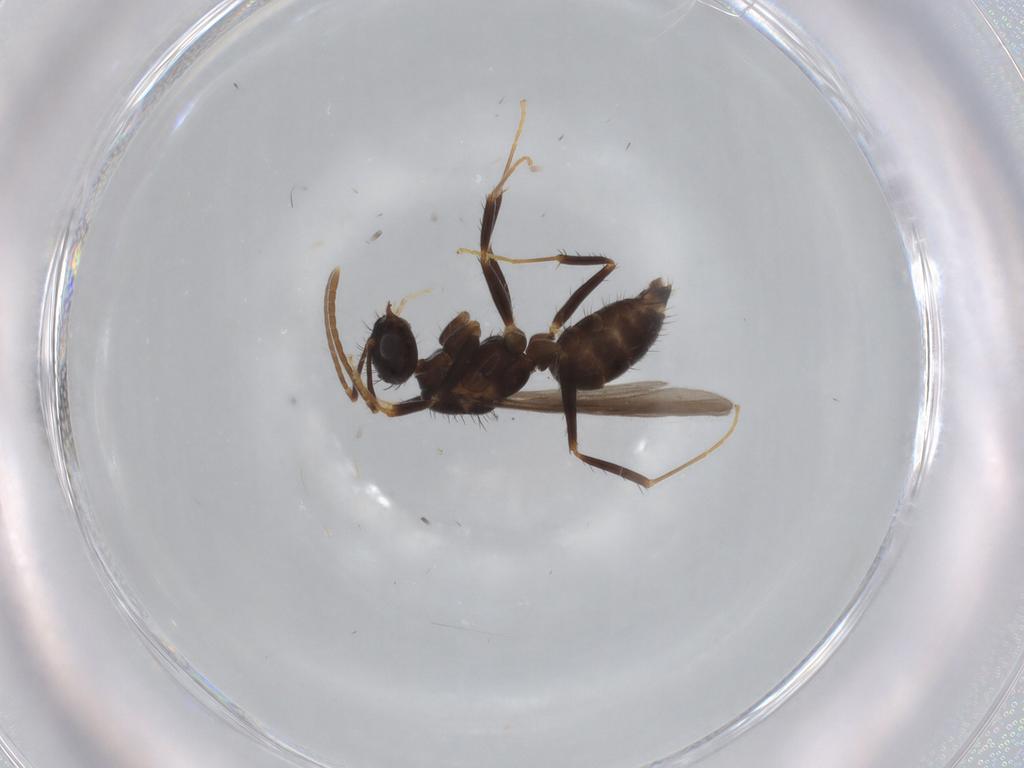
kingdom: Animalia
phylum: Arthropoda
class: Insecta
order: Hymenoptera
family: Formicidae
